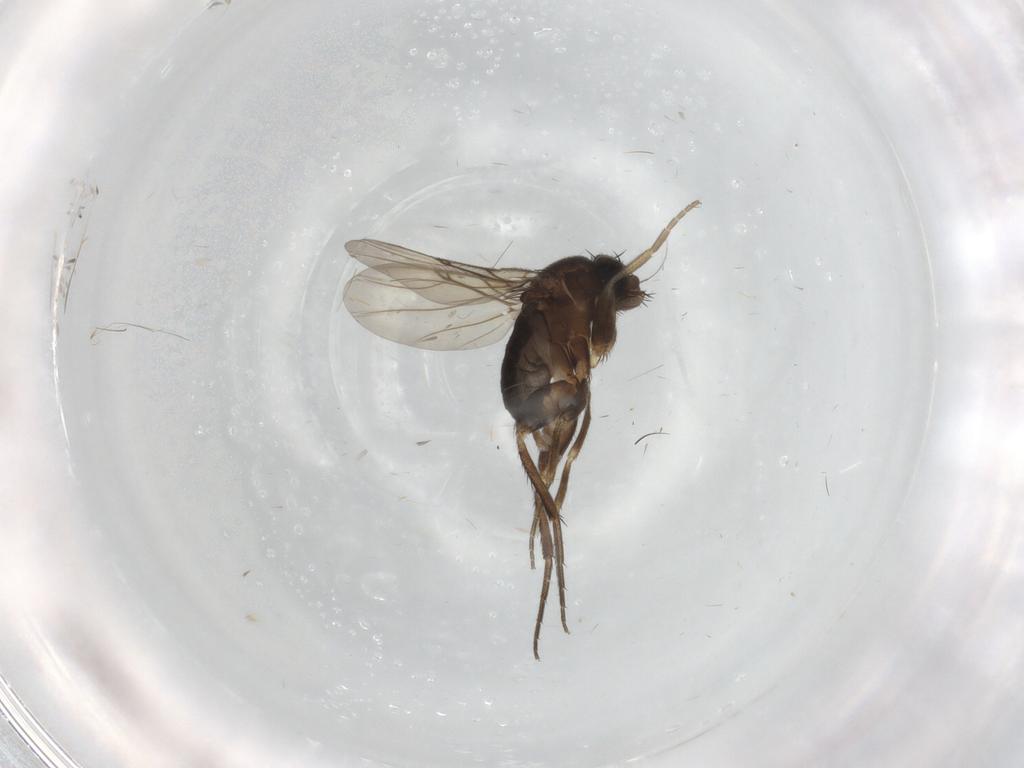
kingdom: Animalia
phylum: Arthropoda
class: Insecta
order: Diptera
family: Phoridae
